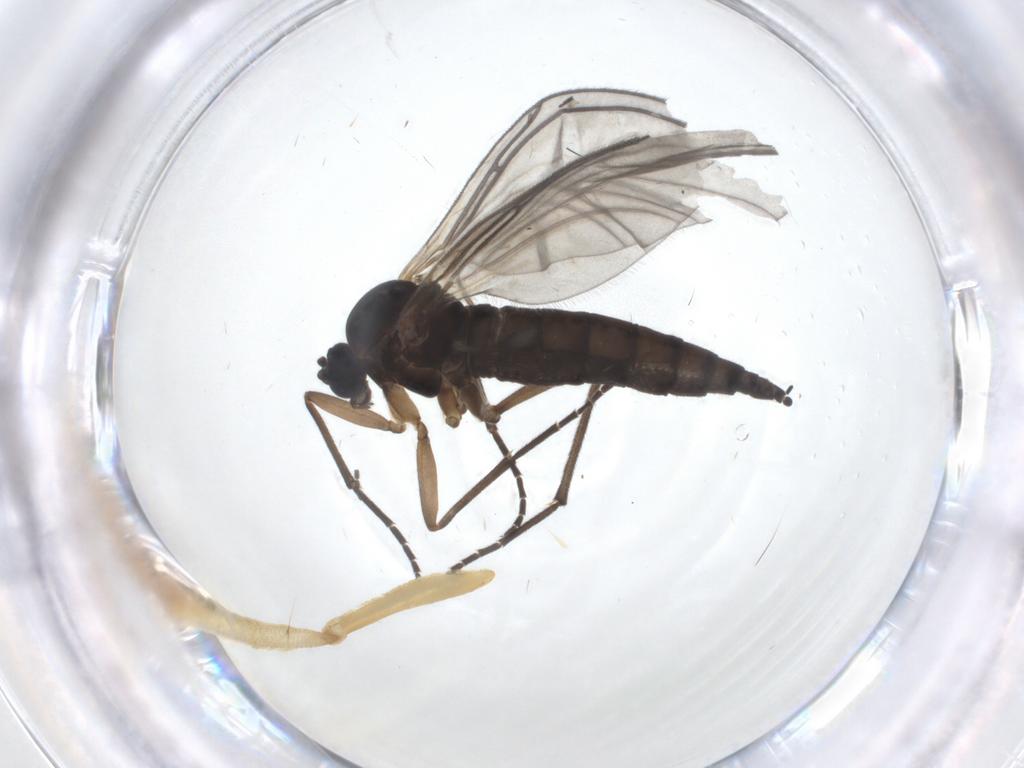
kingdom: Animalia
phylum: Arthropoda
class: Insecta
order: Diptera
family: Sciaridae
